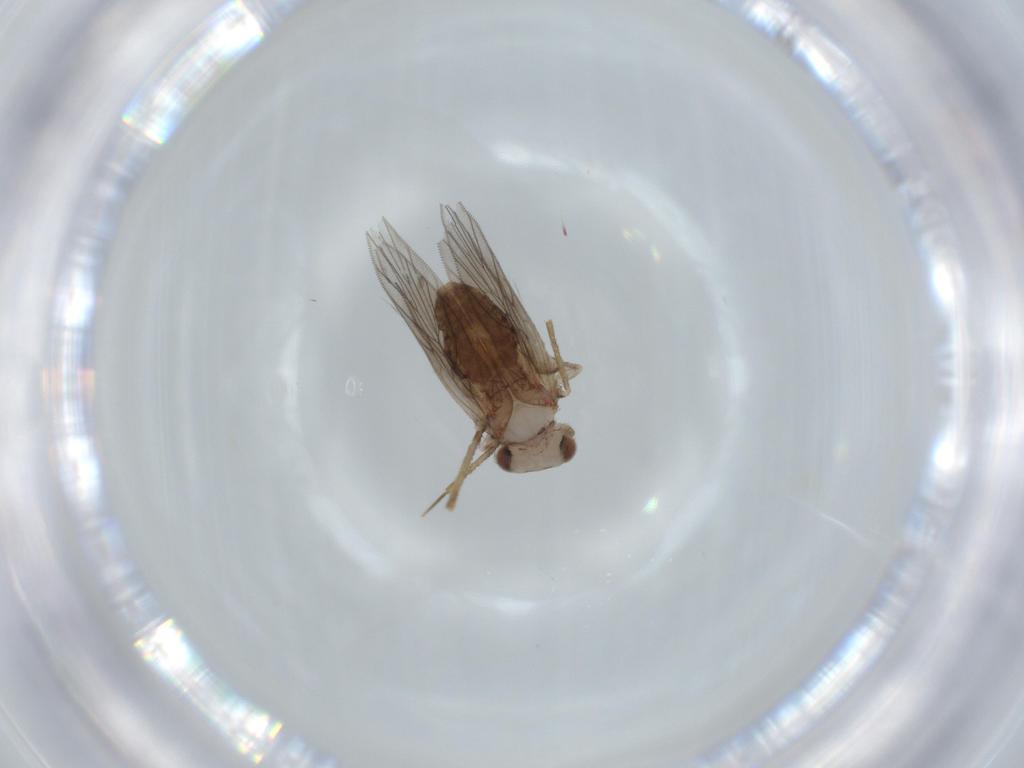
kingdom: Animalia
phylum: Arthropoda
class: Insecta
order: Psocodea
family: Lepidopsocidae
